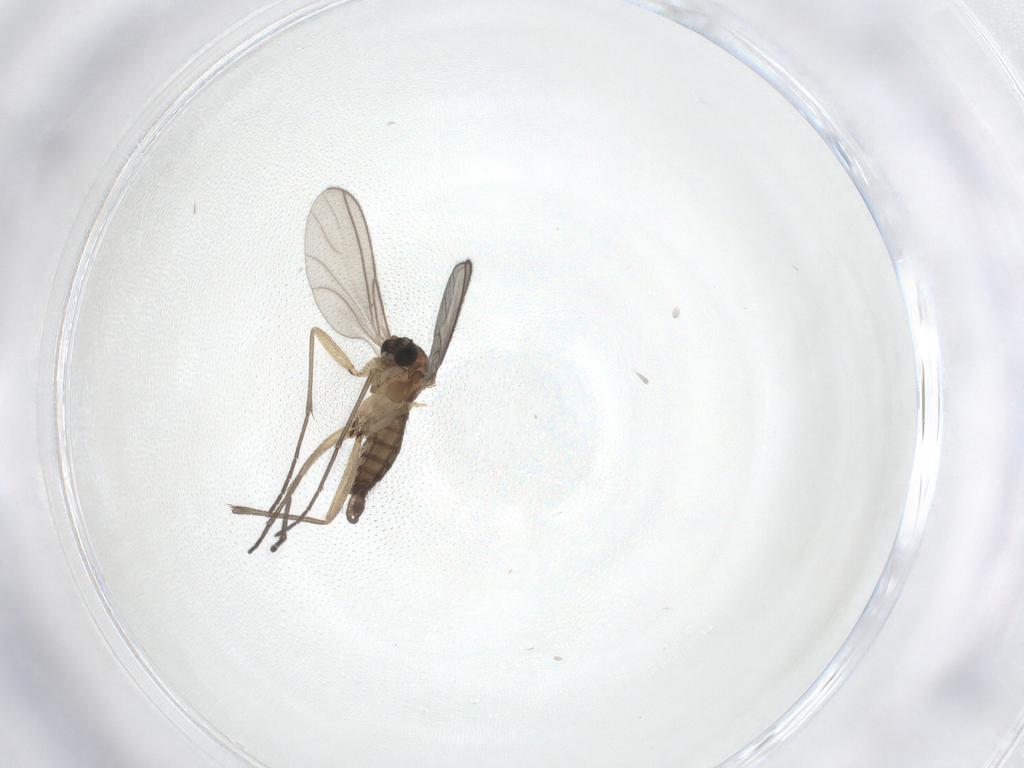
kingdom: Animalia
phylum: Arthropoda
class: Insecta
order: Diptera
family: Sciaridae
